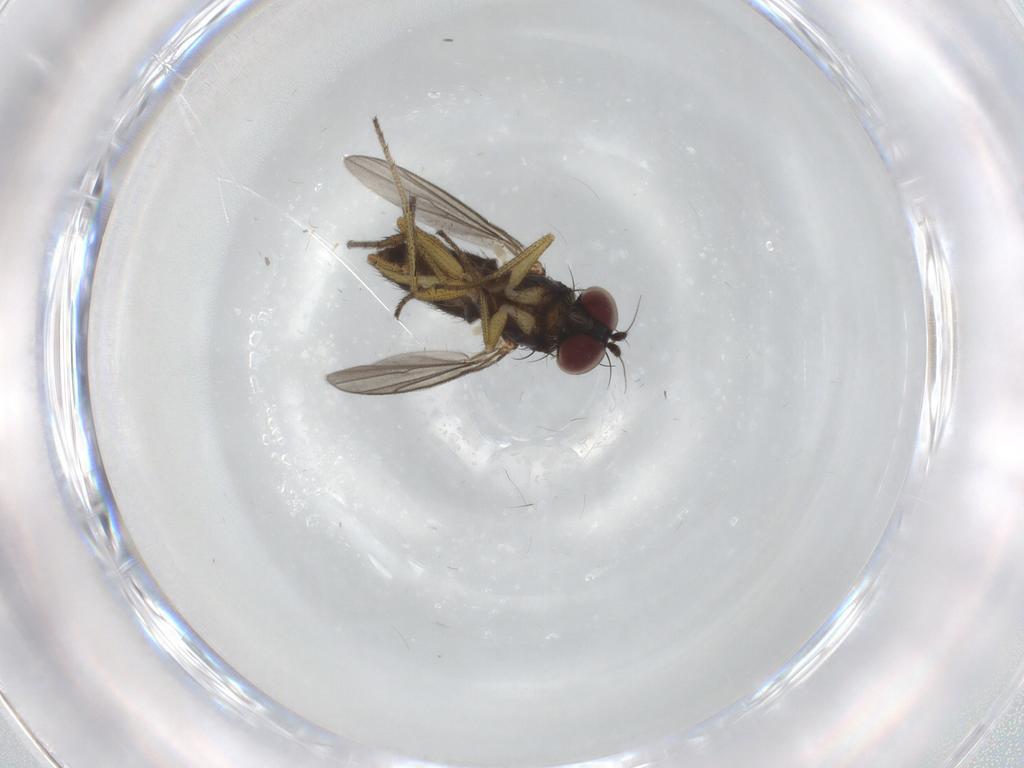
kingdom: Animalia
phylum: Arthropoda
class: Insecta
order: Diptera
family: Dolichopodidae
